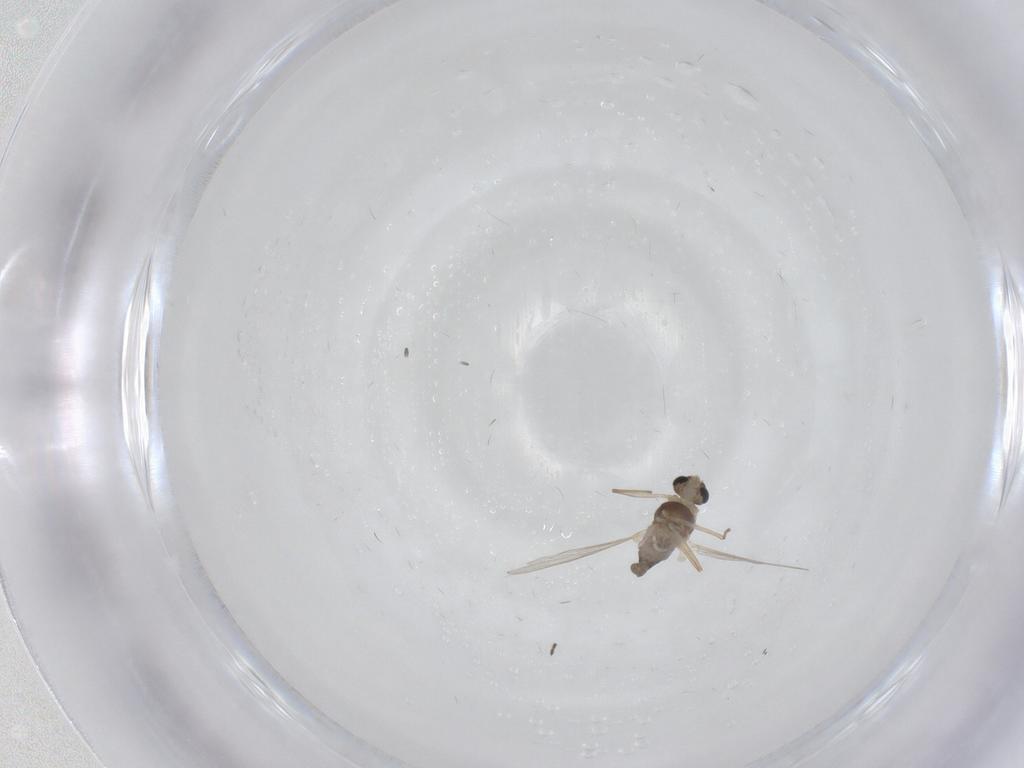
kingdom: Animalia
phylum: Arthropoda
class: Insecta
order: Diptera
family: Chironomidae
